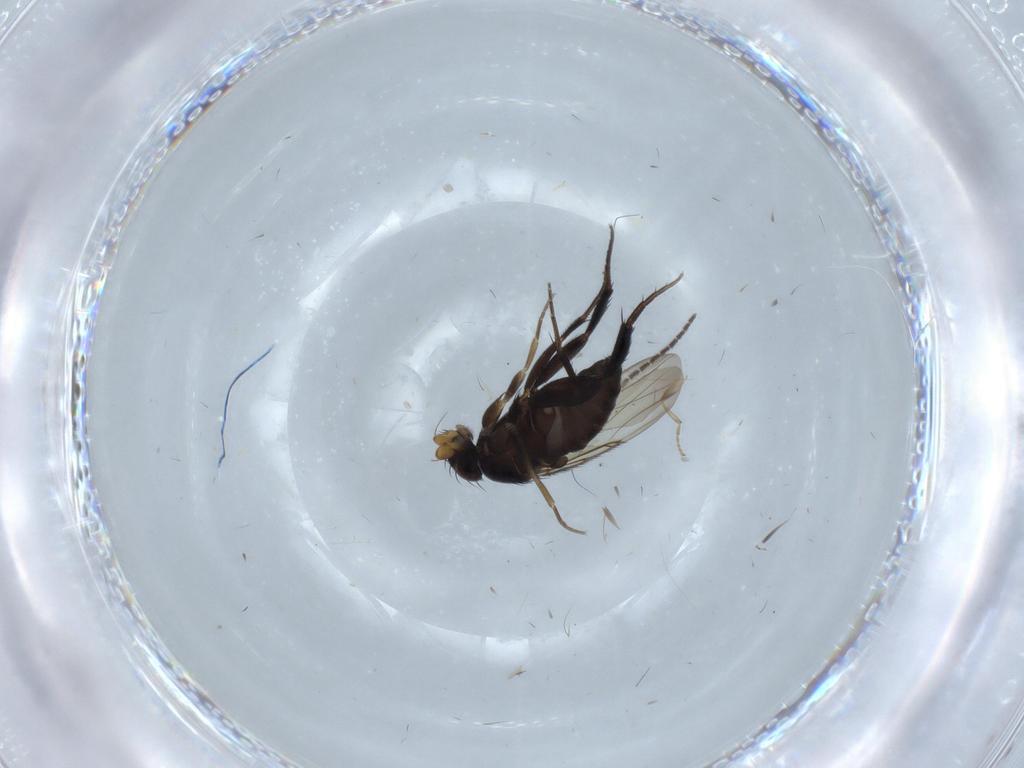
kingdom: Animalia
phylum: Arthropoda
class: Insecta
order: Diptera
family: Phoridae
